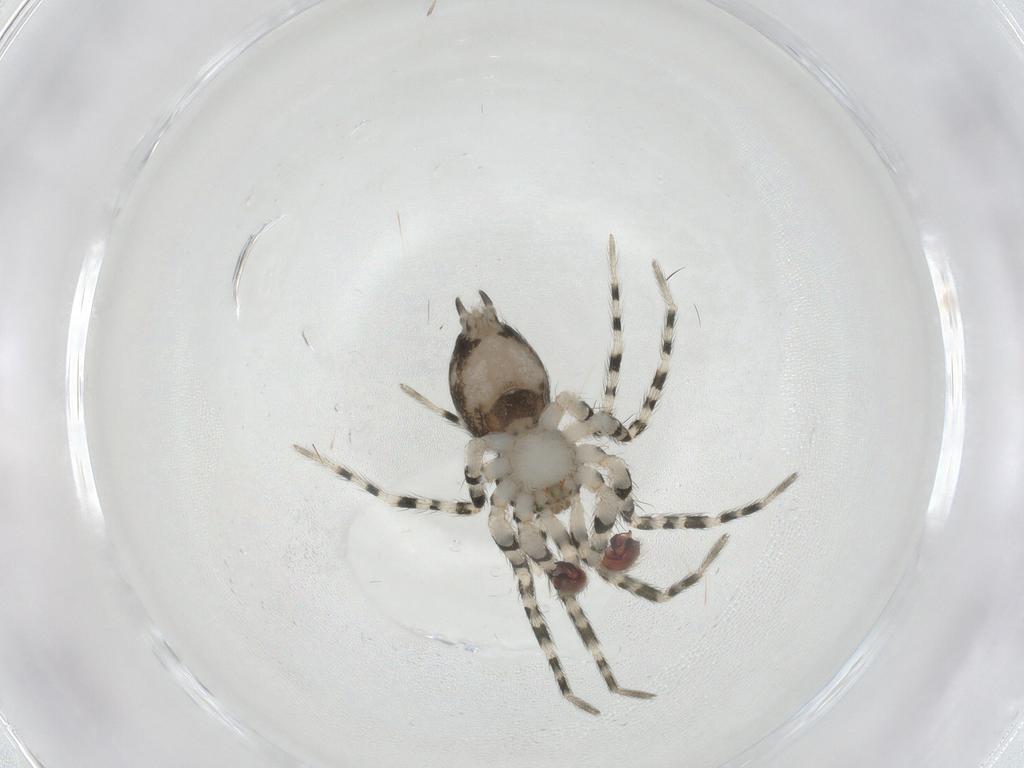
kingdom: Animalia
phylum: Arthropoda
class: Arachnida
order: Araneae
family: Oecobiidae
